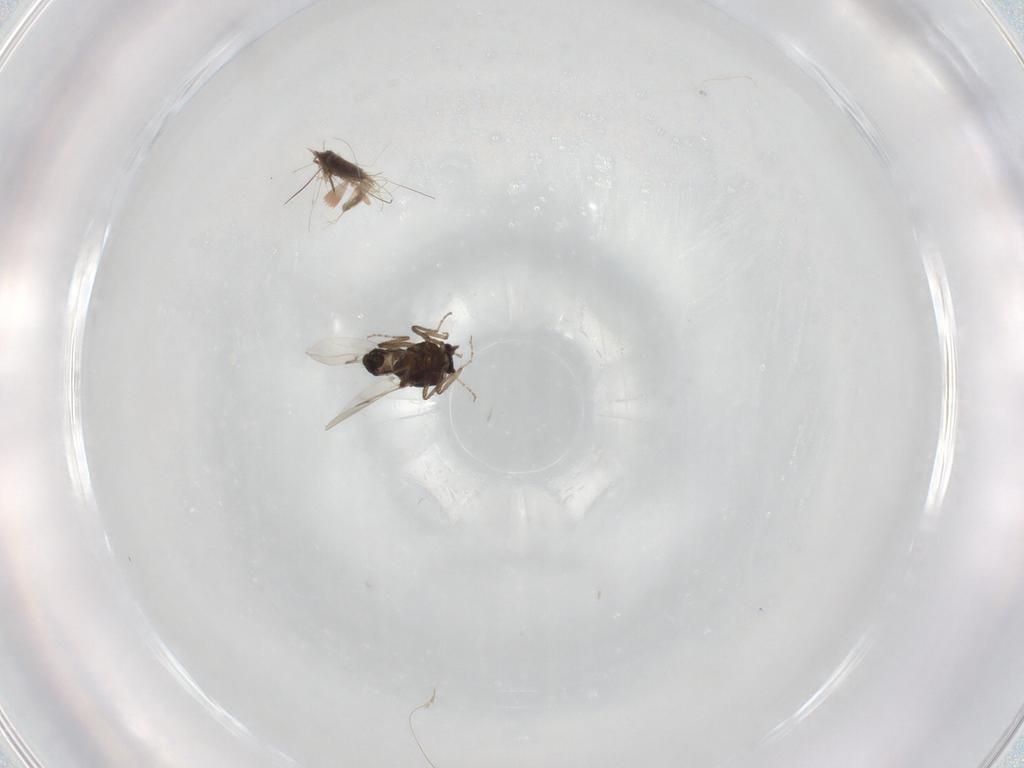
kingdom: Animalia
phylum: Arthropoda
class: Insecta
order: Diptera
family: Ceratopogonidae
